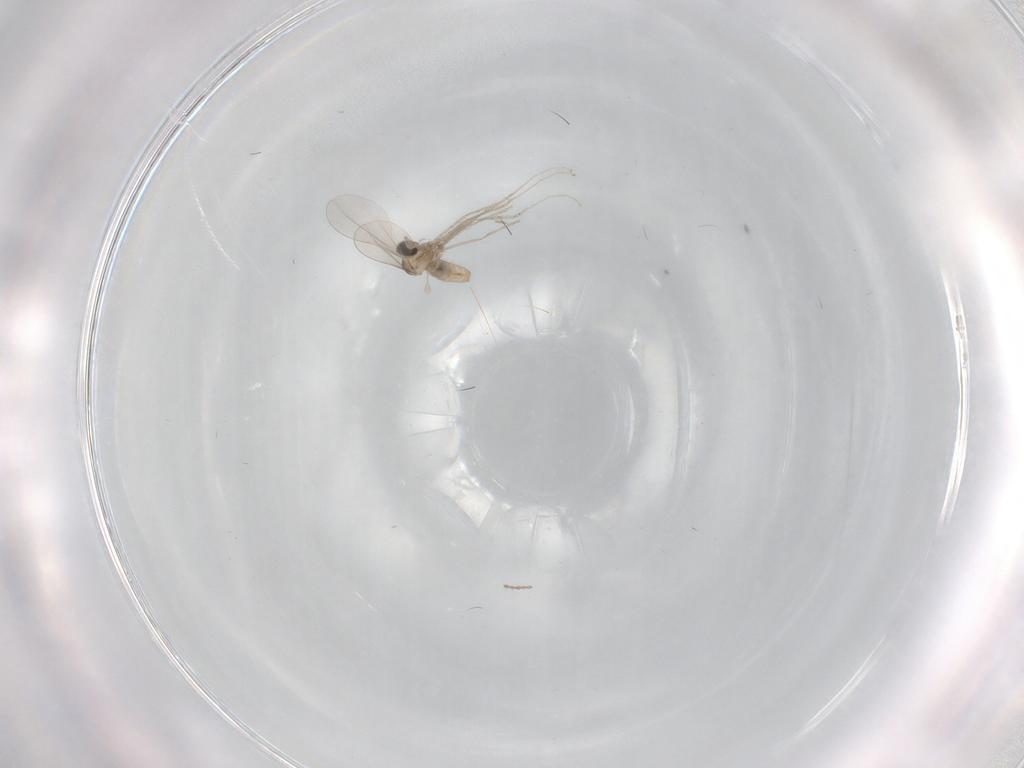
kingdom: Animalia
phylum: Arthropoda
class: Insecta
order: Diptera
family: Cecidomyiidae
